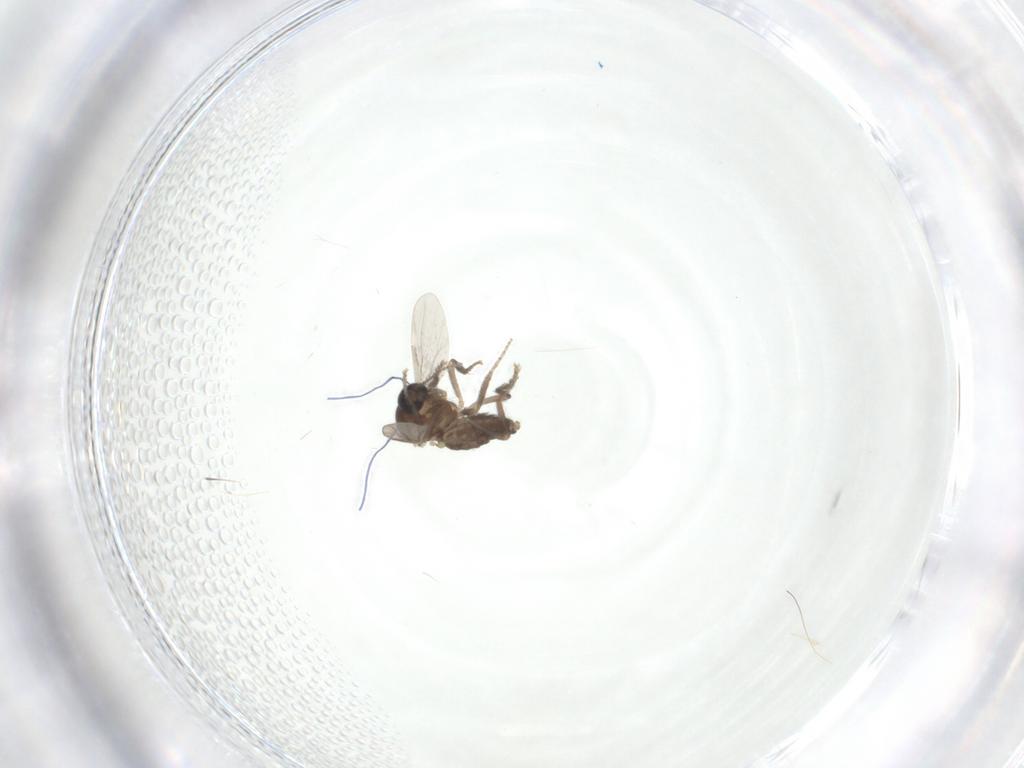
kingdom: Animalia
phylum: Arthropoda
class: Insecta
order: Diptera
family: Ceratopogonidae
